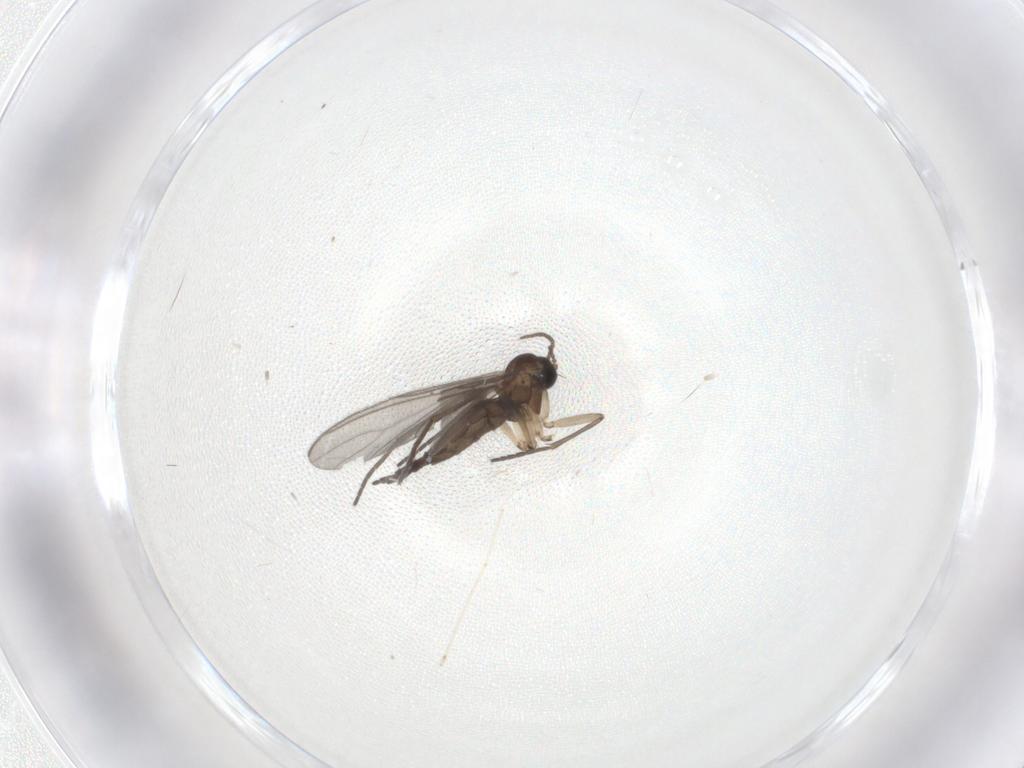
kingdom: Animalia
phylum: Arthropoda
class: Insecta
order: Diptera
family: Sciaridae
